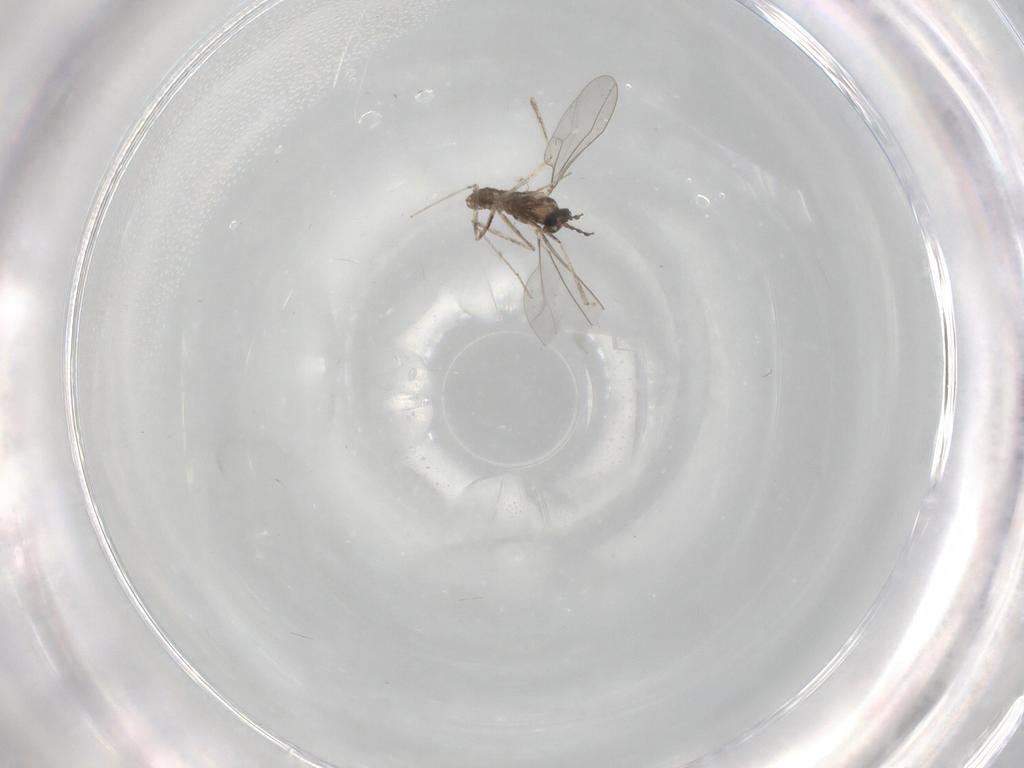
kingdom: Animalia
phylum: Arthropoda
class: Insecta
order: Diptera
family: Cecidomyiidae
